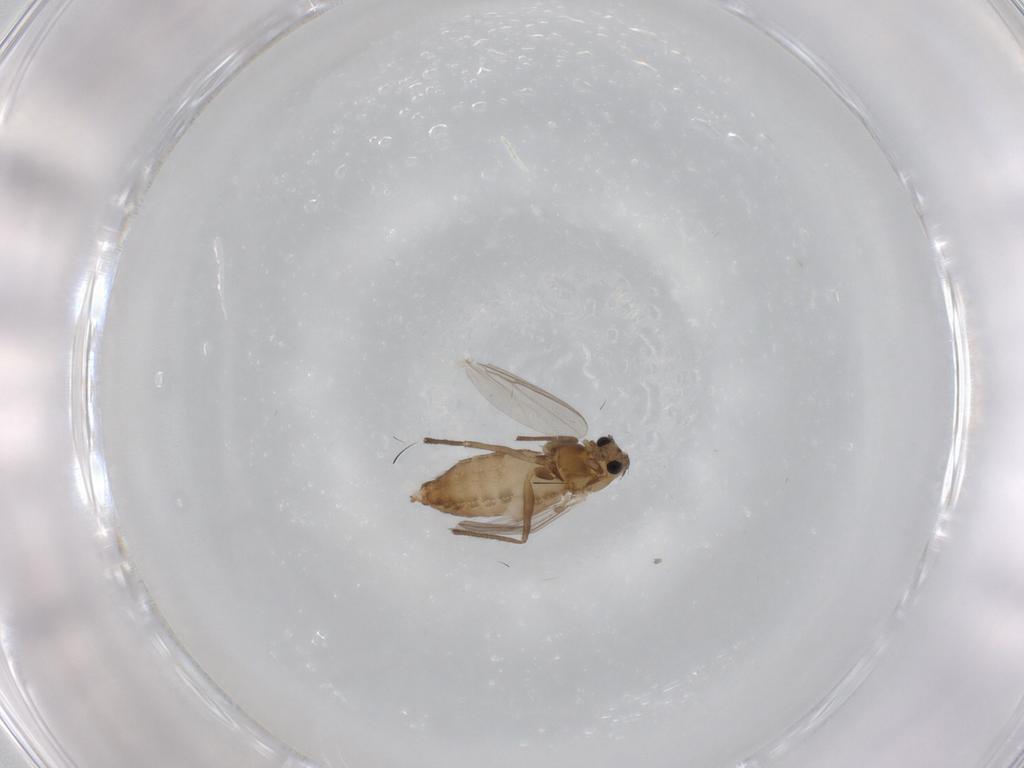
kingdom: Animalia
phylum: Arthropoda
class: Insecta
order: Diptera
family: Chironomidae
